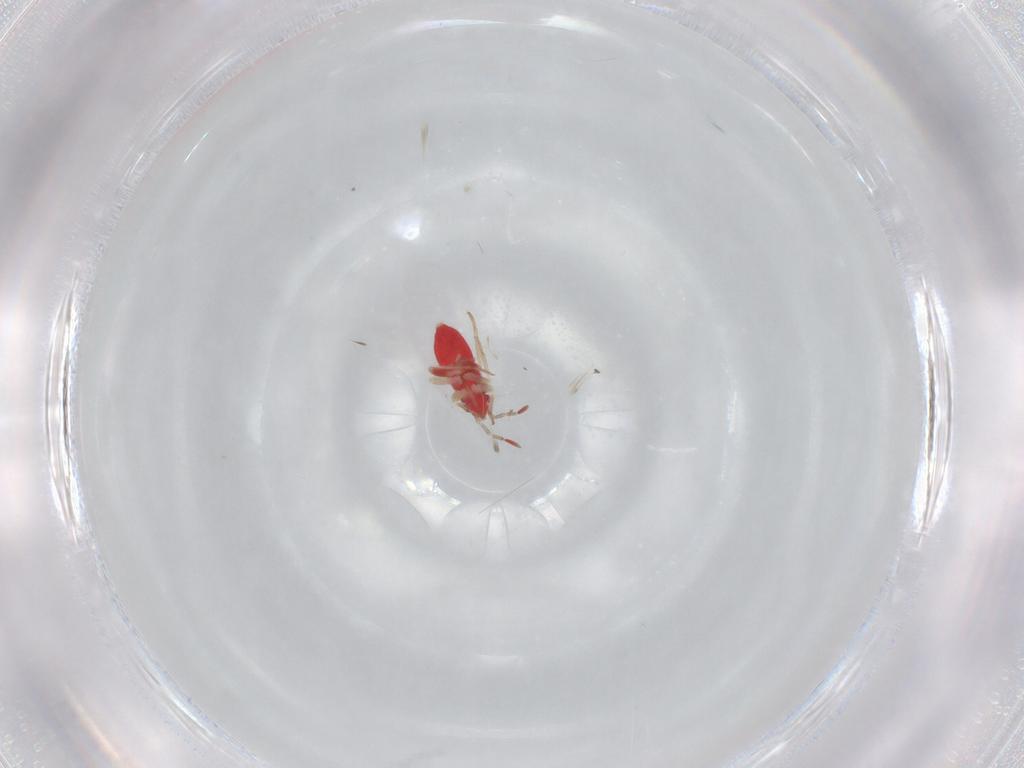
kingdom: Animalia
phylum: Arthropoda
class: Insecta
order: Hemiptera
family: Miridae
